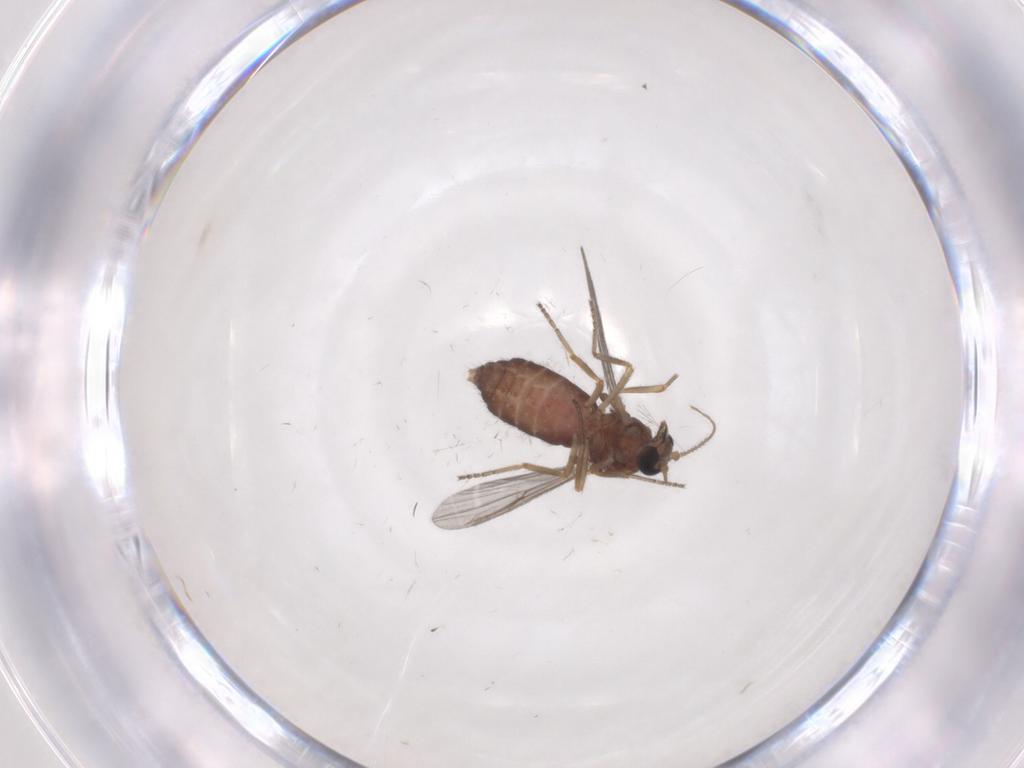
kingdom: Animalia
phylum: Arthropoda
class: Insecta
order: Diptera
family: Ceratopogonidae
